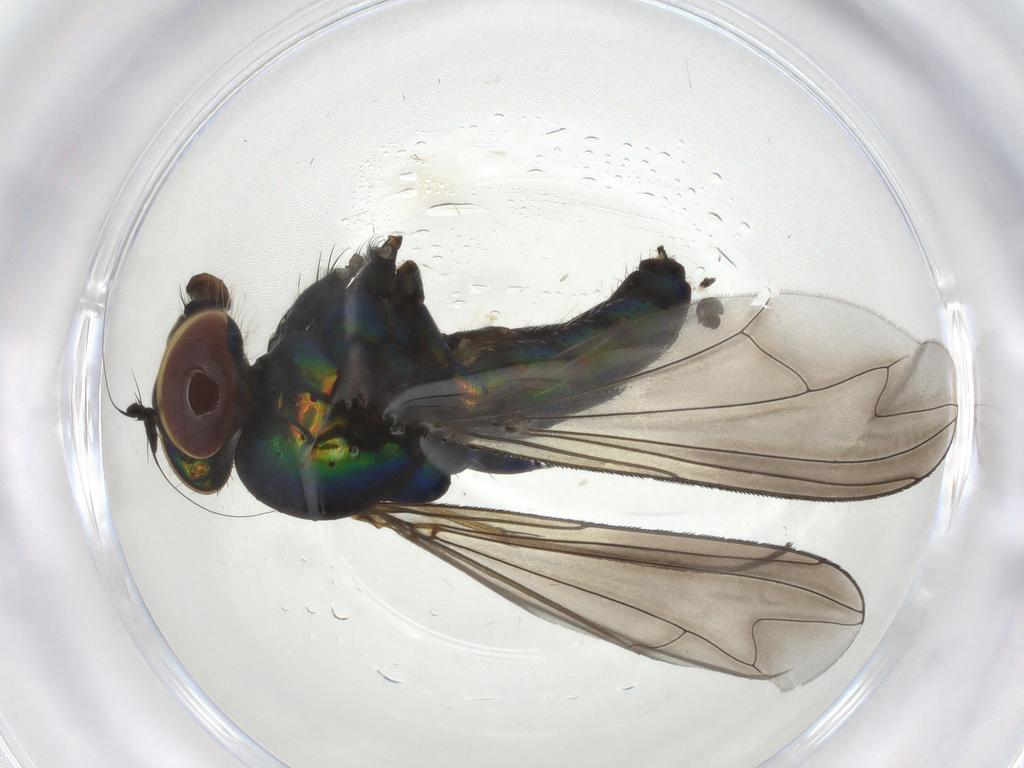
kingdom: Animalia
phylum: Arthropoda
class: Insecta
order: Diptera
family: Dolichopodidae
